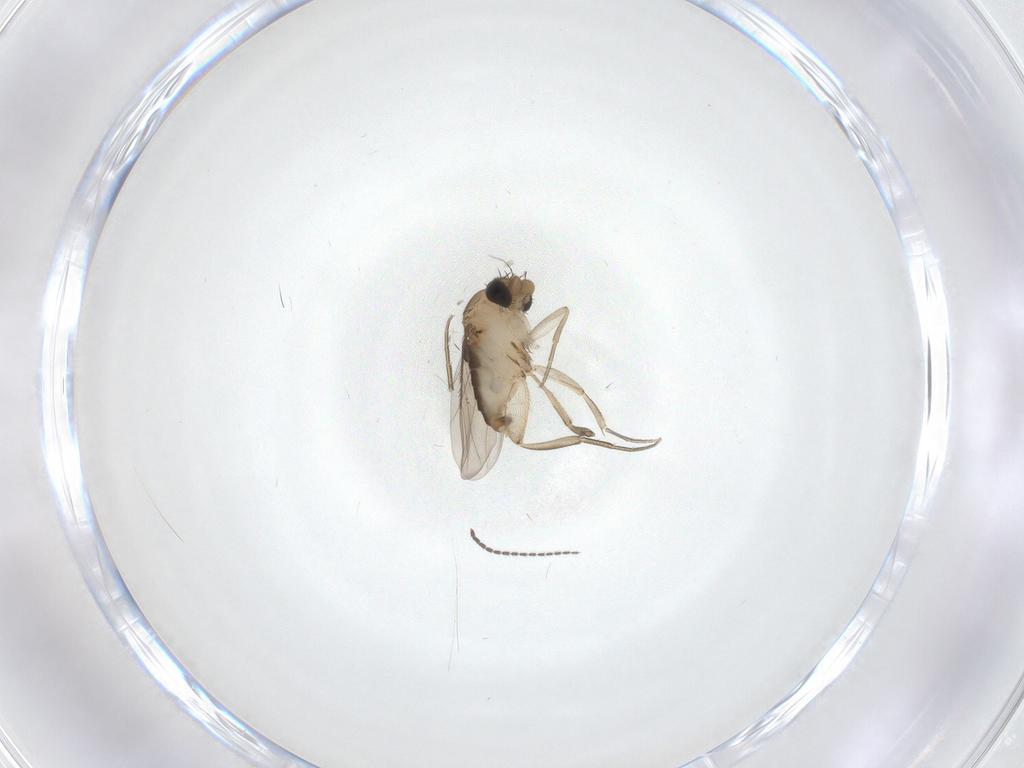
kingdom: Animalia
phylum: Arthropoda
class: Insecta
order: Diptera
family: Phoridae
